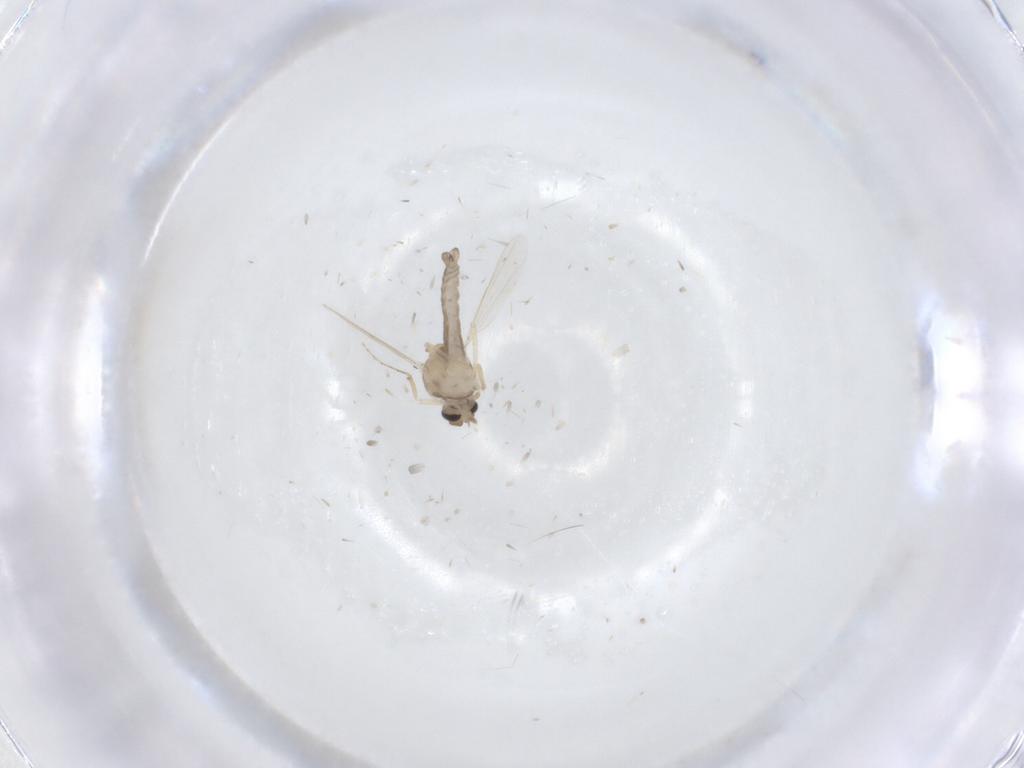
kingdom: Animalia
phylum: Arthropoda
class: Insecta
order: Diptera
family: Ceratopogonidae
